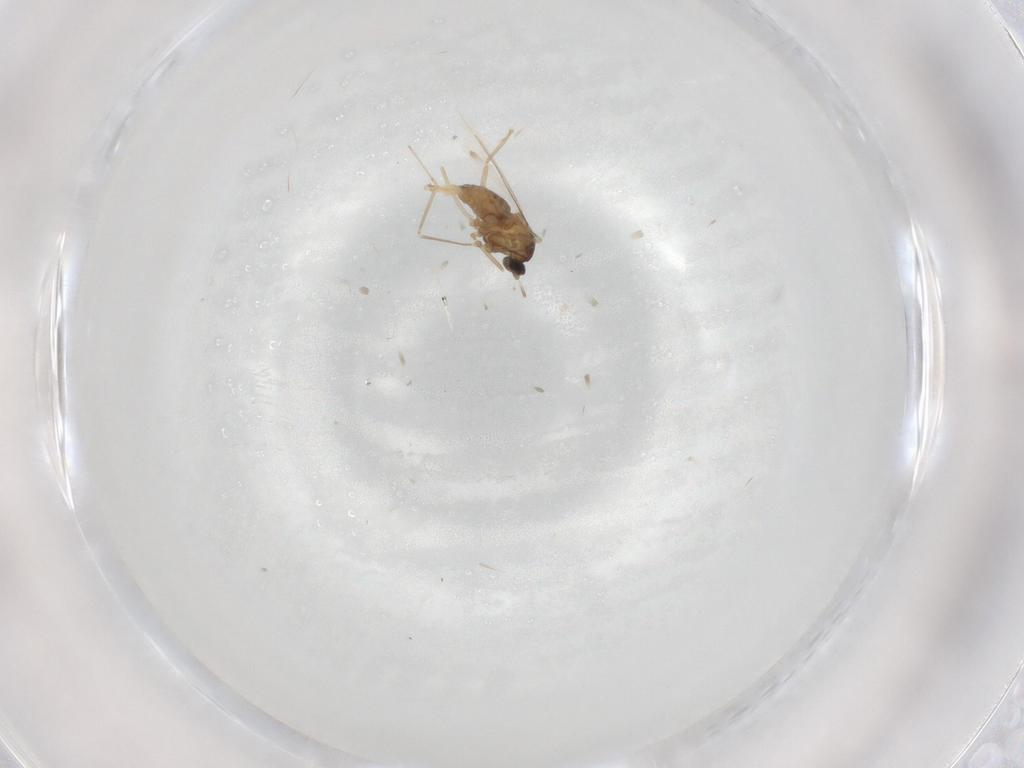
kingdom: Animalia
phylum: Arthropoda
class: Insecta
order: Diptera
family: Cecidomyiidae
